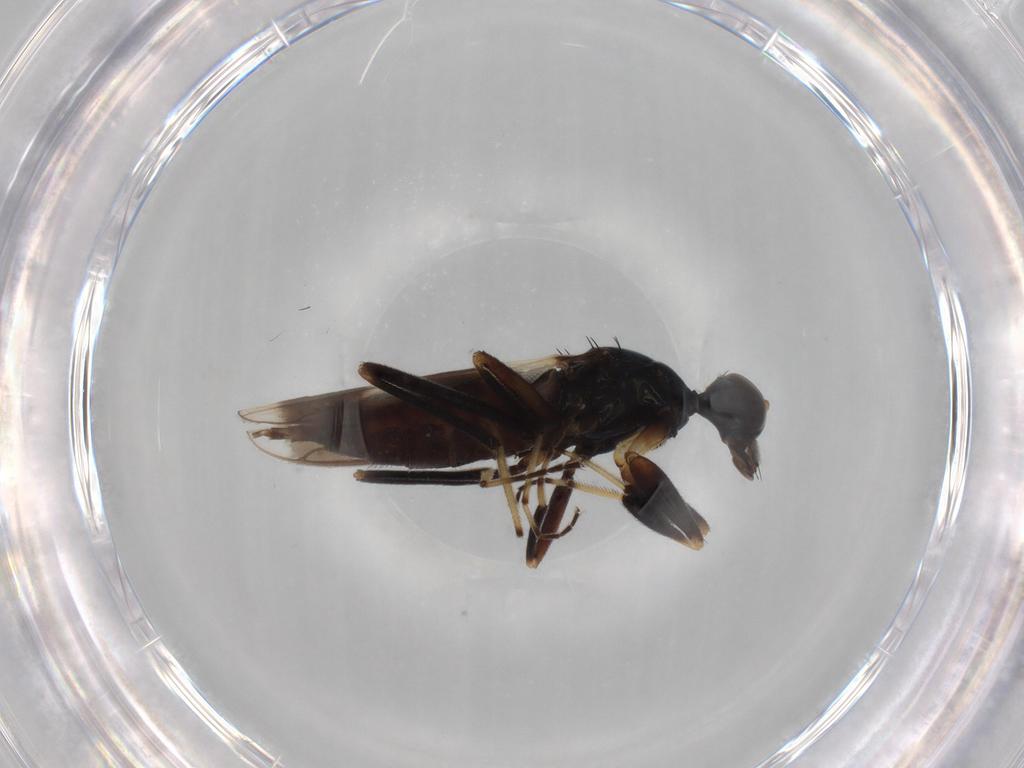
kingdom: Animalia
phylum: Arthropoda
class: Insecta
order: Diptera
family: Hybotidae
